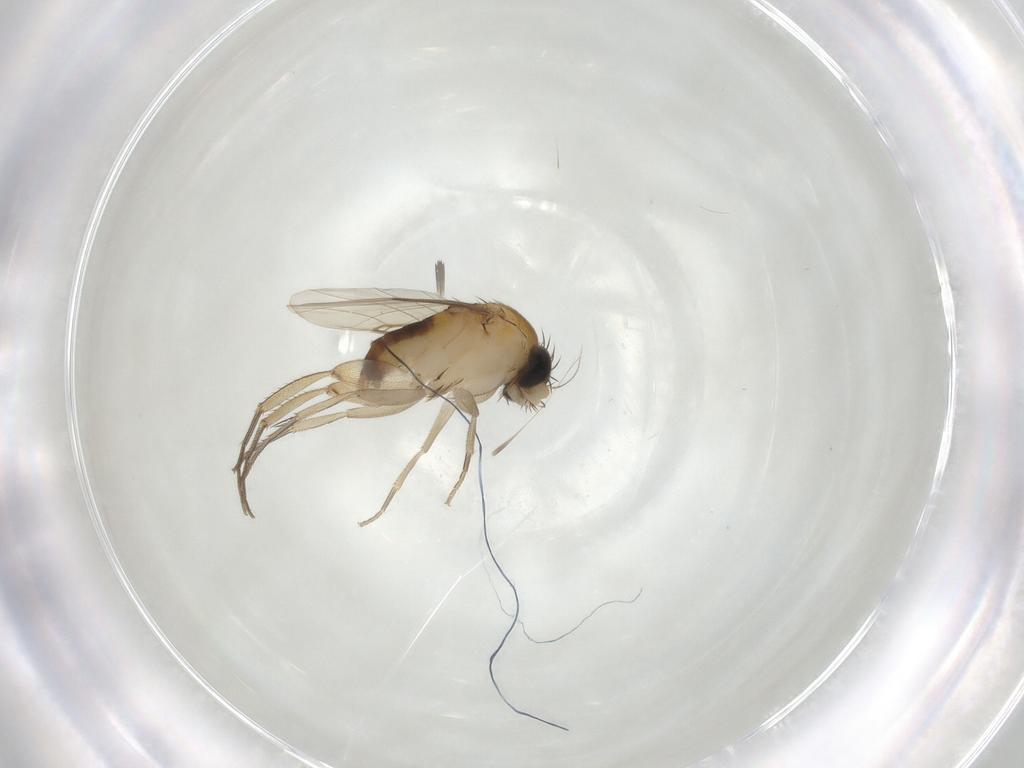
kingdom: Animalia
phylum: Arthropoda
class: Insecta
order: Diptera
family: Phoridae
